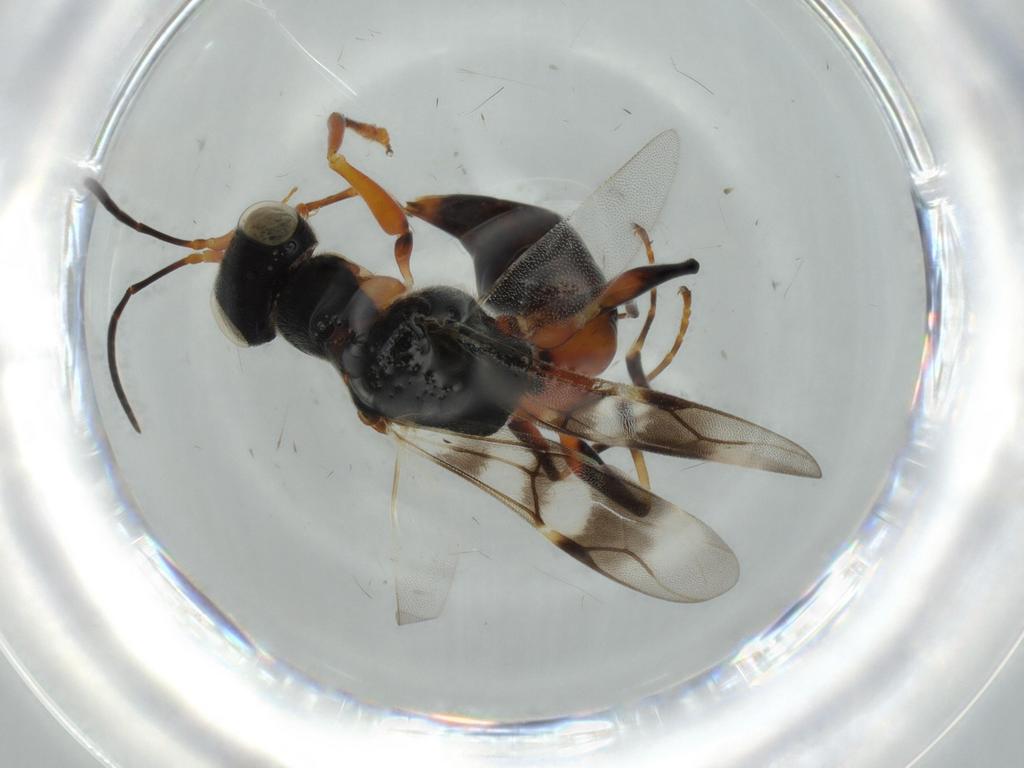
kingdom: Animalia
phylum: Arthropoda
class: Insecta
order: Hymenoptera
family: Dryinidae
